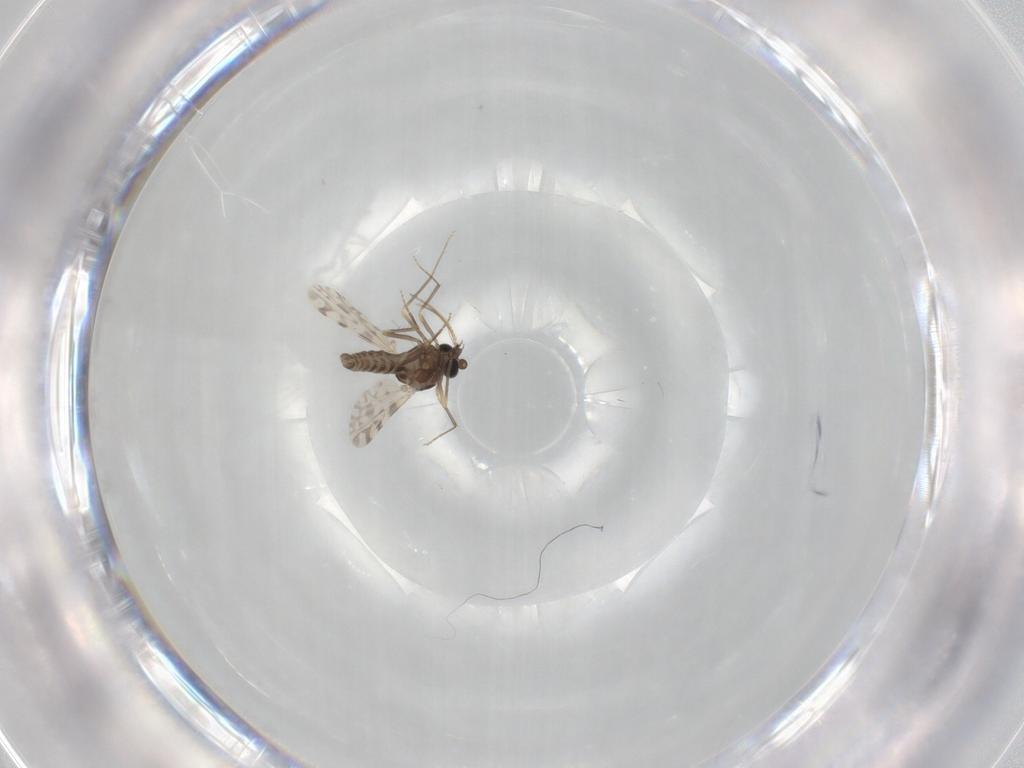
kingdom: Animalia
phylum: Arthropoda
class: Insecta
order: Diptera
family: Ceratopogonidae
